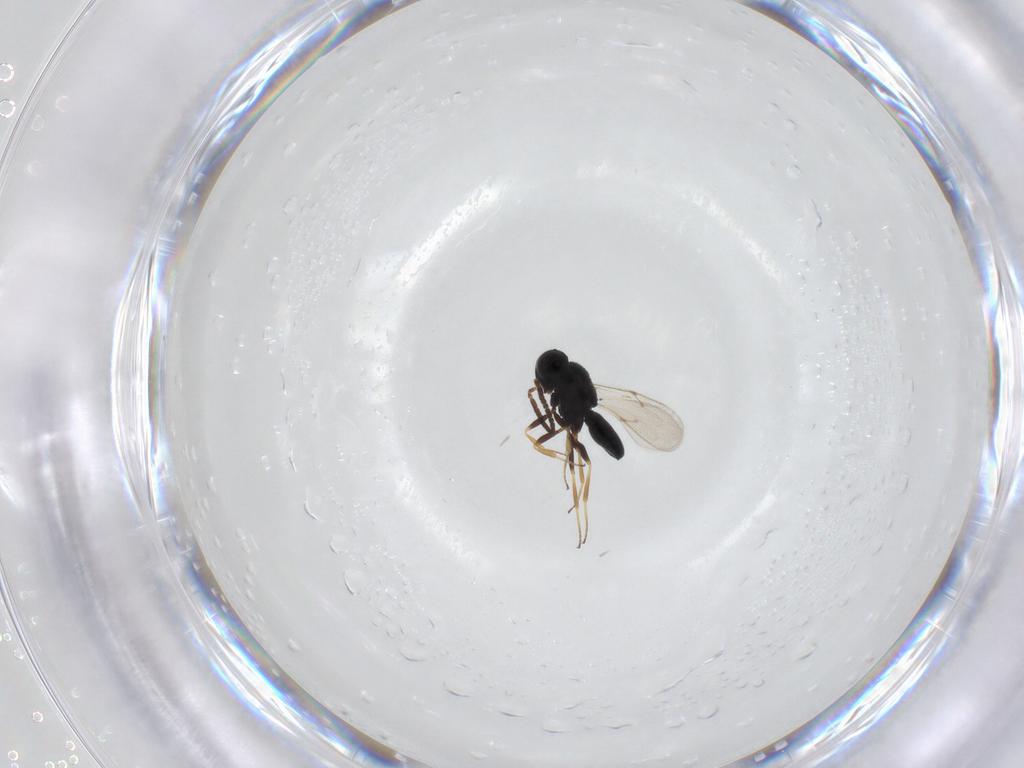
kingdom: Animalia
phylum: Arthropoda
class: Insecta
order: Hymenoptera
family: Scelionidae
